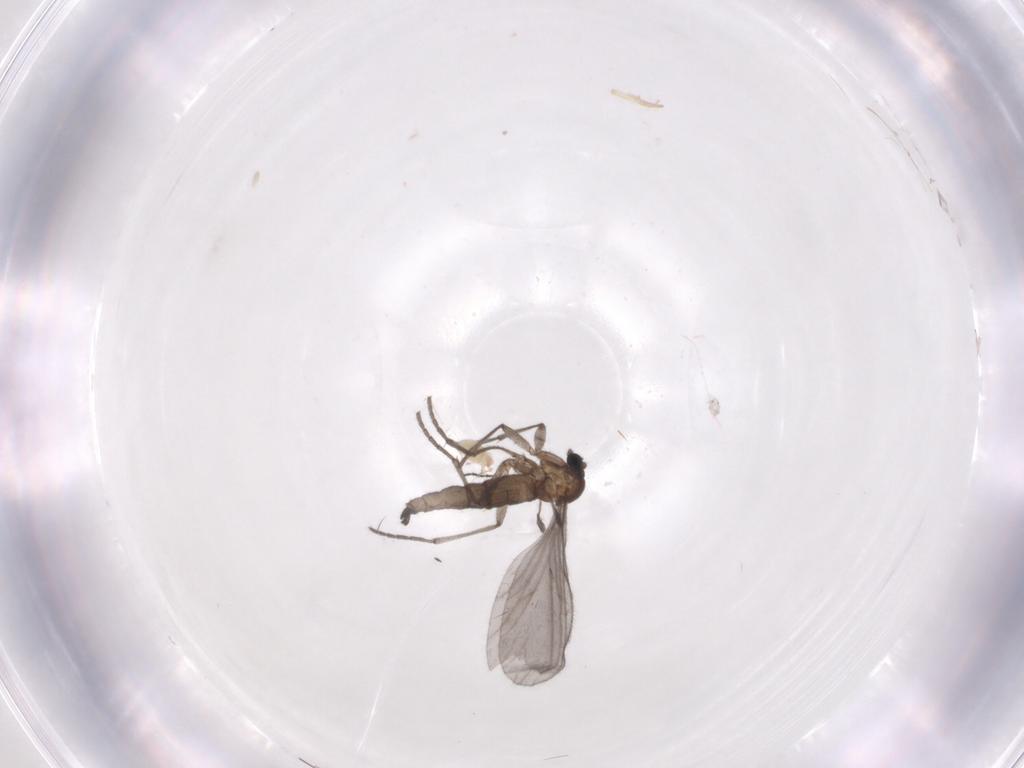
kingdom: Animalia
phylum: Arthropoda
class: Insecta
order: Diptera
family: Sciaridae
